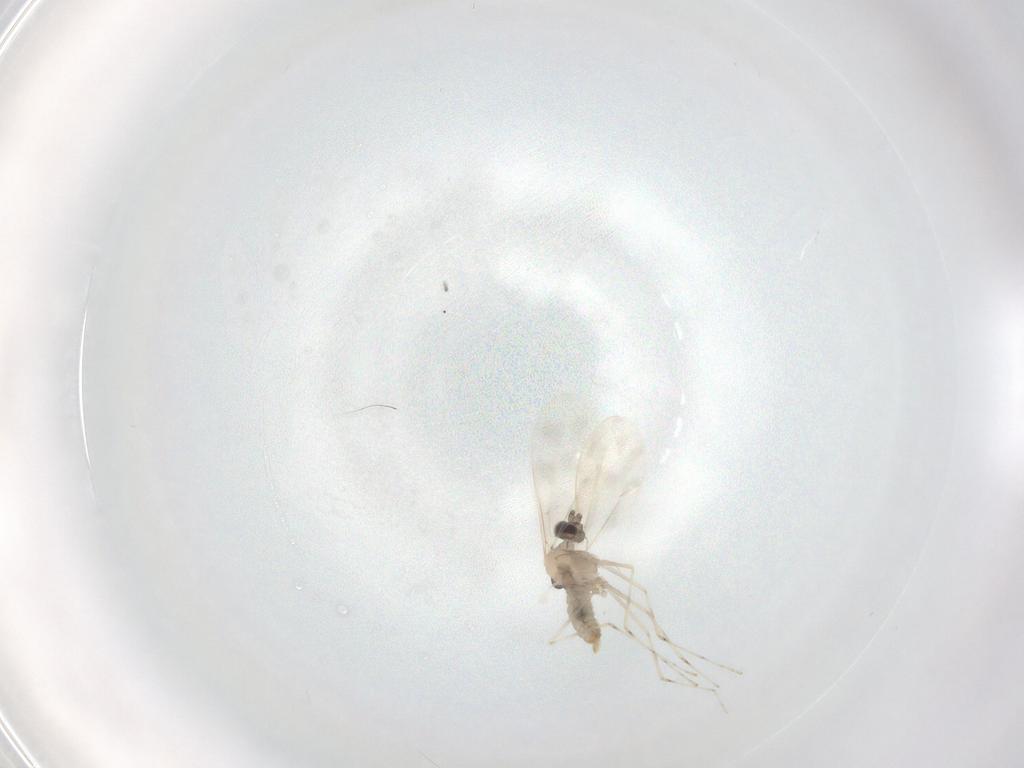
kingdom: Animalia
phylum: Arthropoda
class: Insecta
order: Diptera
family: Cecidomyiidae
